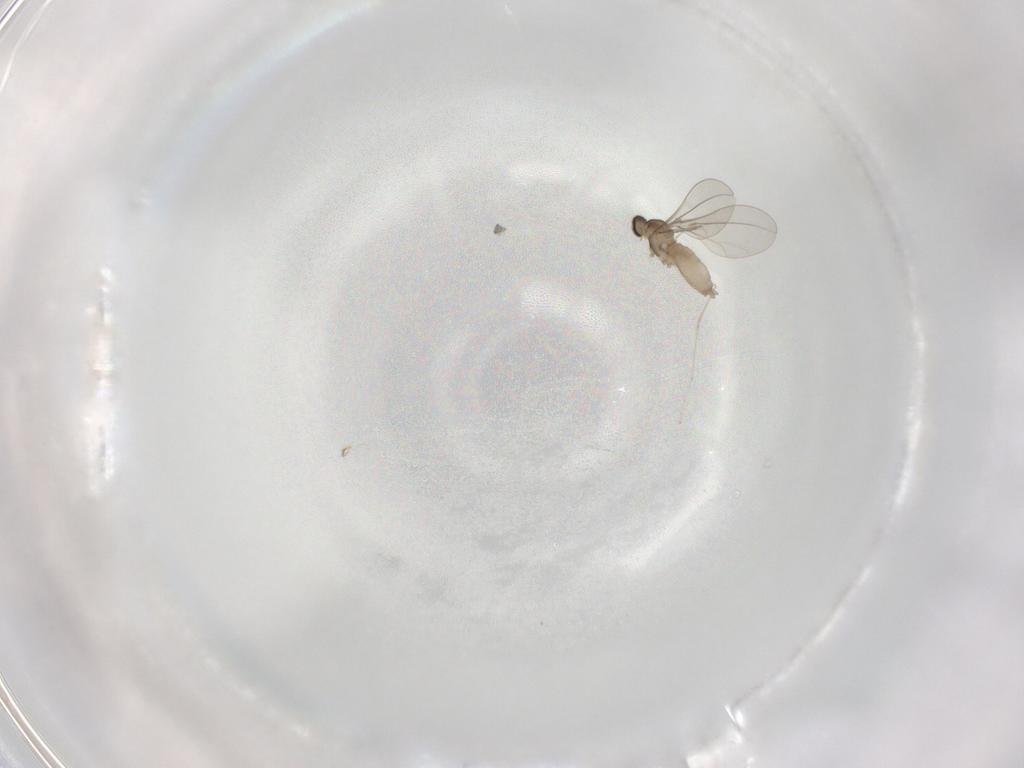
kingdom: Animalia
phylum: Arthropoda
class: Insecta
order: Diptera
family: Cecidomyiidae
